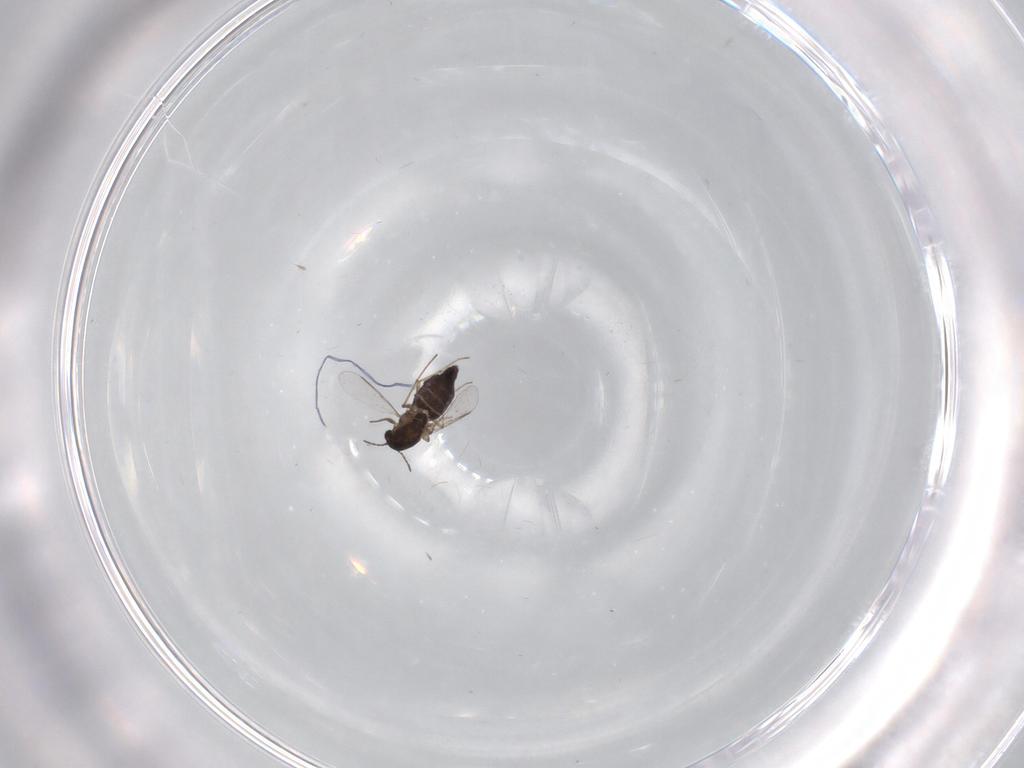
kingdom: Animalia
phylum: Arthropoda
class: Insecta
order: Diptera
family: Chironomidae
